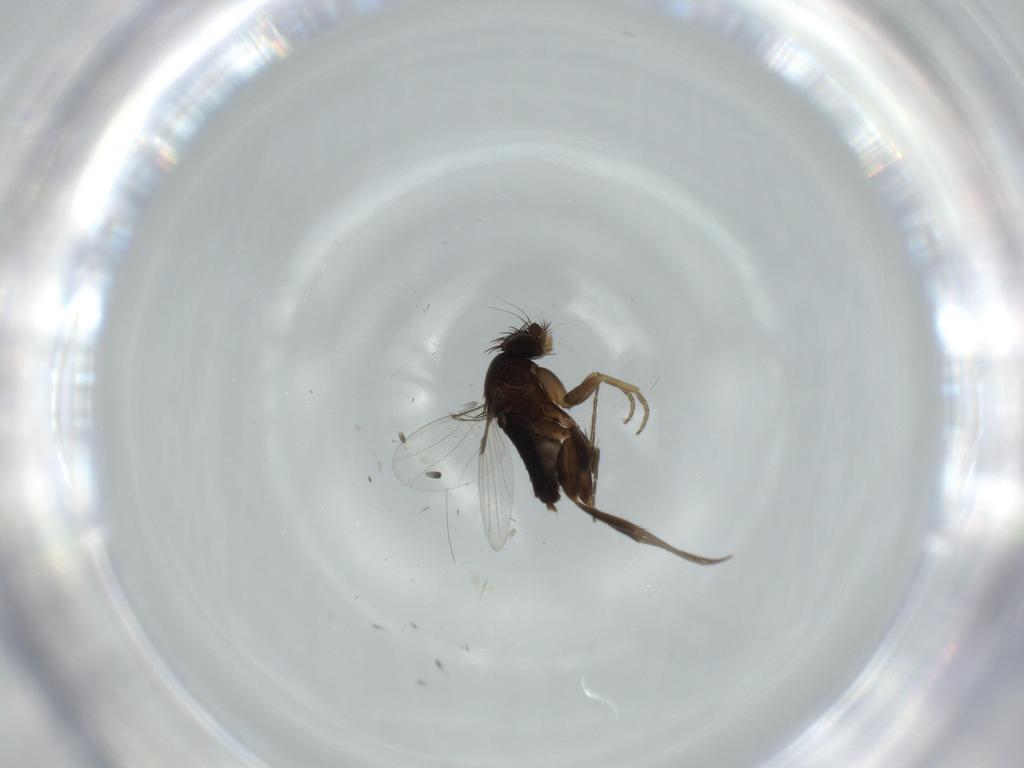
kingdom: Animalia
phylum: Arthropoda
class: Insecta
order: Diptera
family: Phoridae
